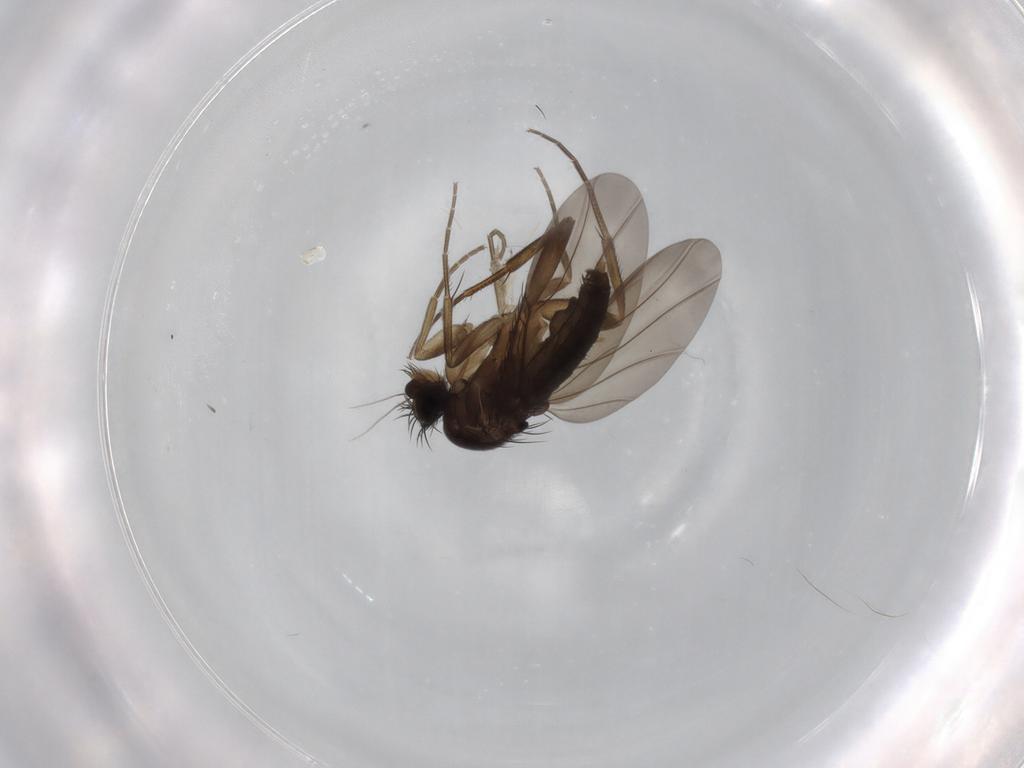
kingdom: Animalia
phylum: Arthropoda
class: Insecta
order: Diptera
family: Phoridae
